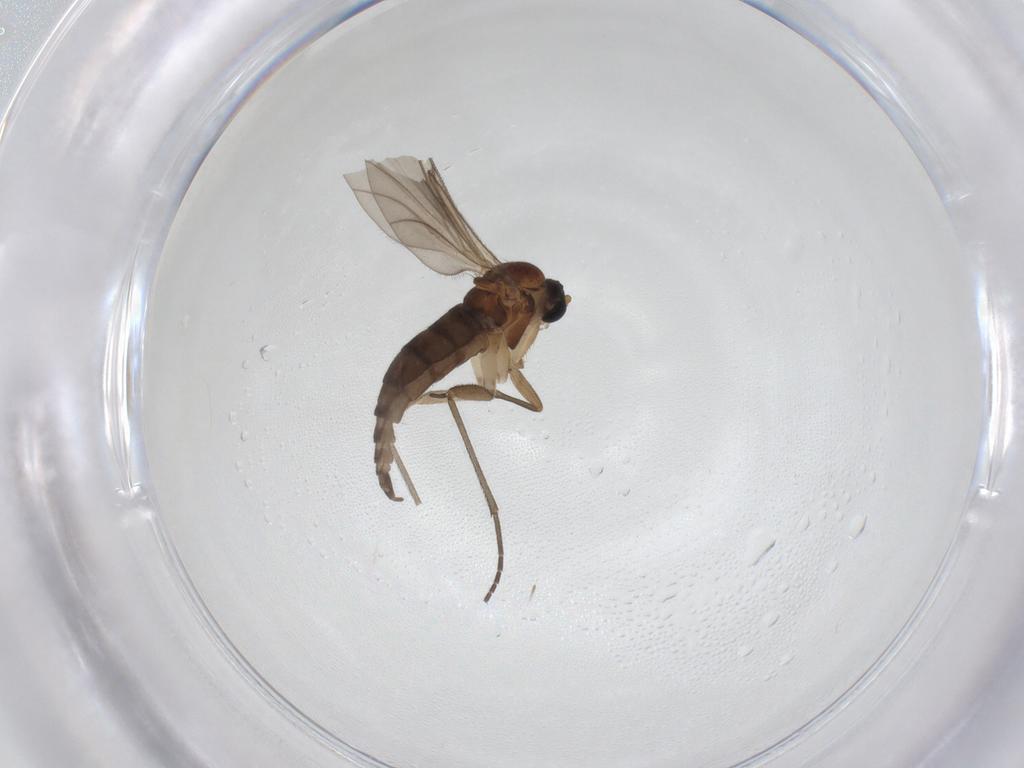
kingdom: Animalia
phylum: Arthropoda
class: Insecta
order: Diptera
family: Sciaridae
